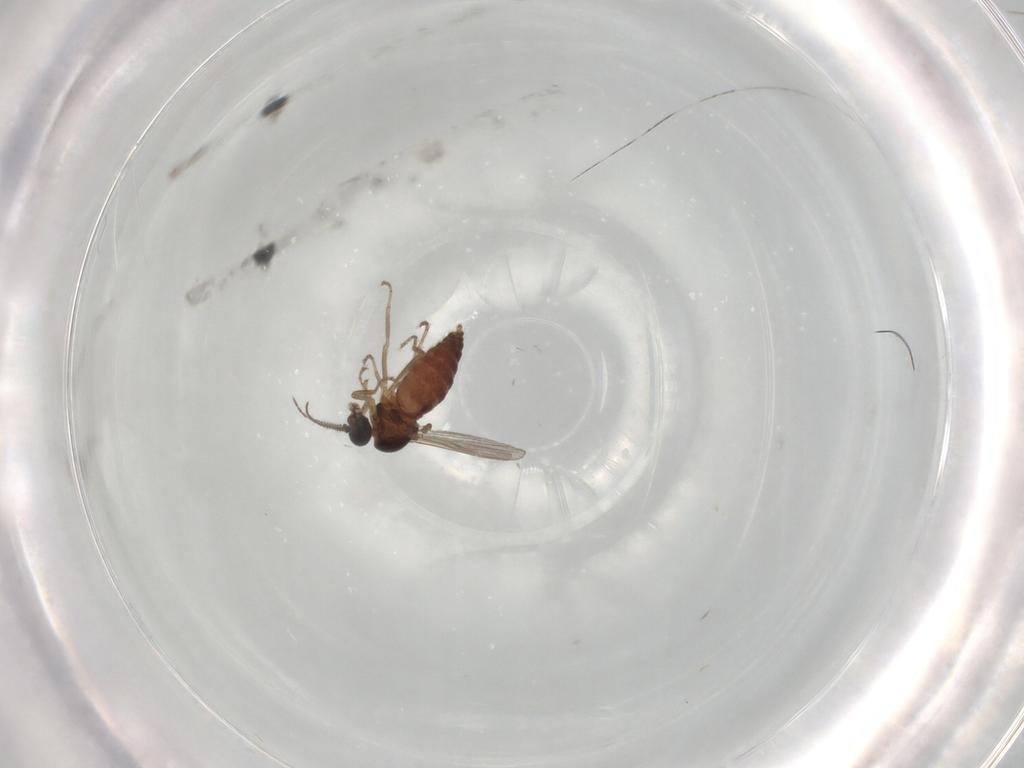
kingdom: Animalia
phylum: Arthropoda
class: Insecta
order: Diptera
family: Ceratopogonidae
